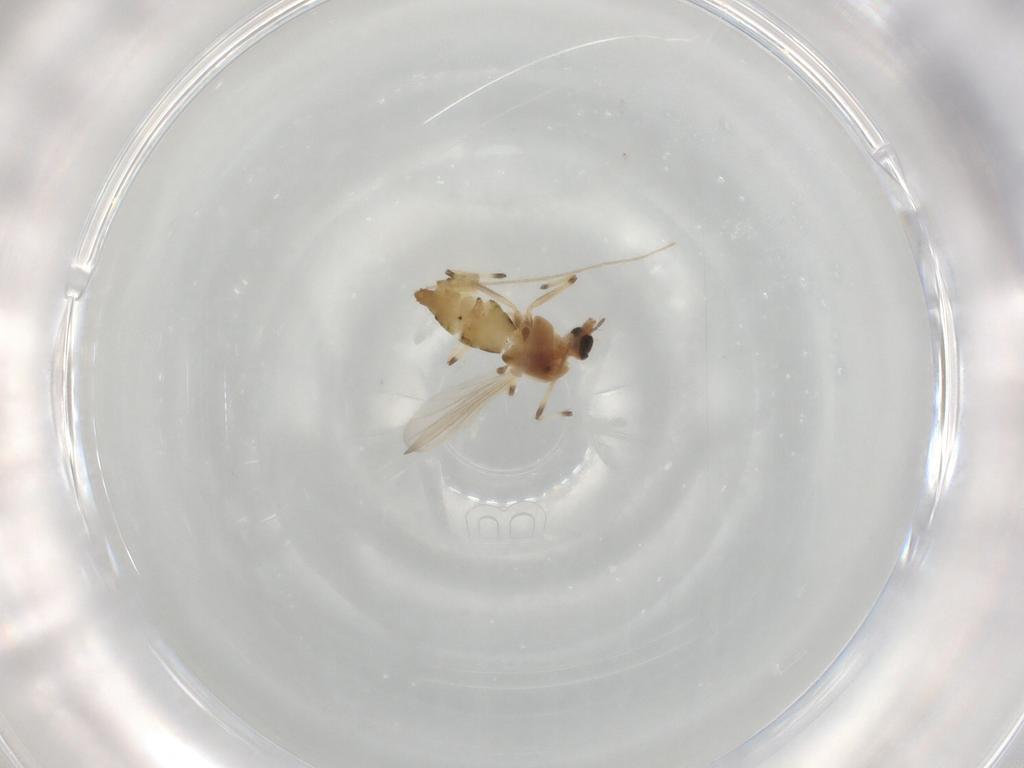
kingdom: Animalia
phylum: Arthropoda
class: Insecta
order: Diptera
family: Chironomidae
